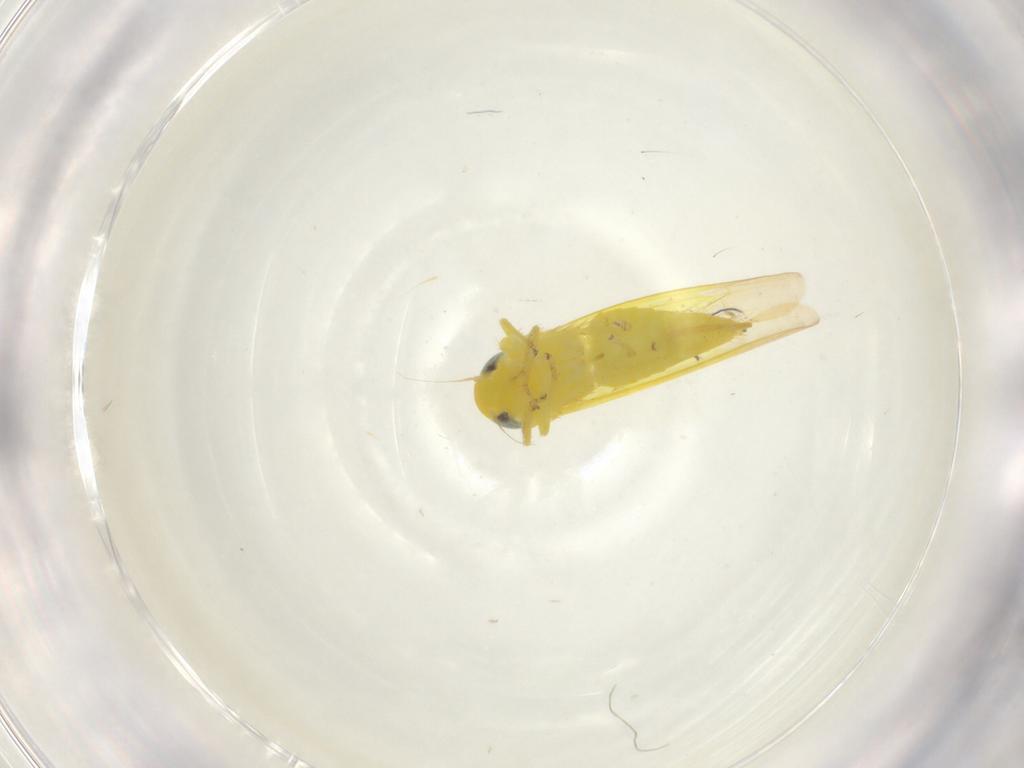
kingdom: Animalia
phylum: Arthropoda
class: Insecta
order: Hemiptera
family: Cicadellidae
